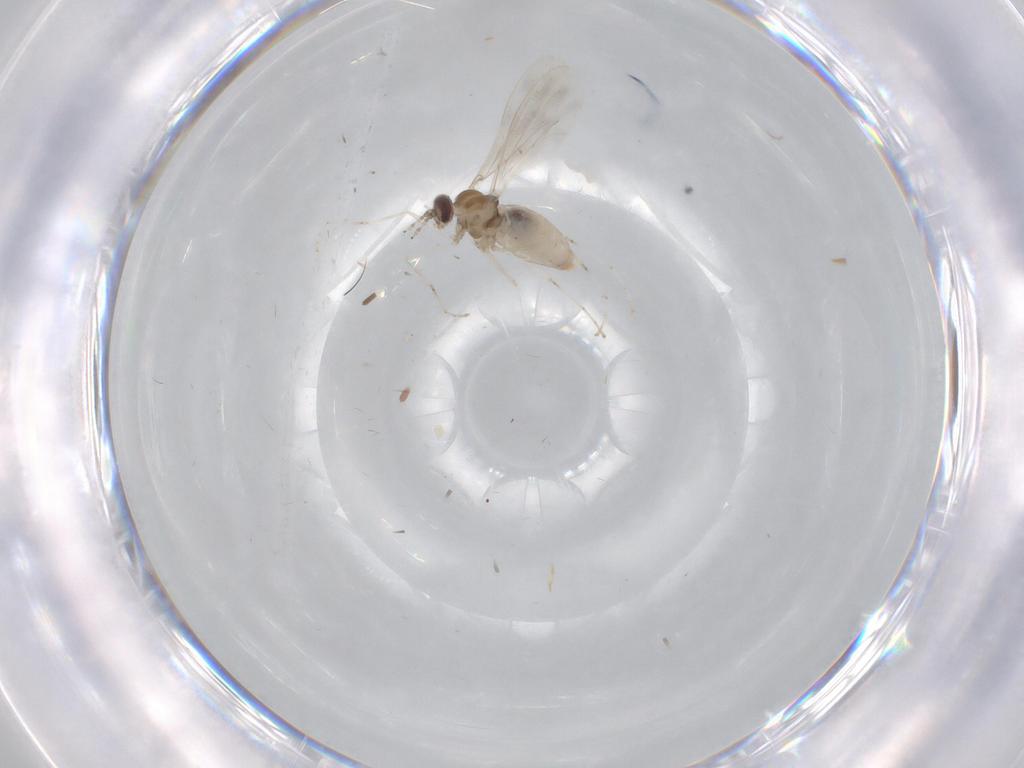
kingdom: Animalia
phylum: Arthropoda
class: Insecta
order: Diptera
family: Cecidomyiidae
